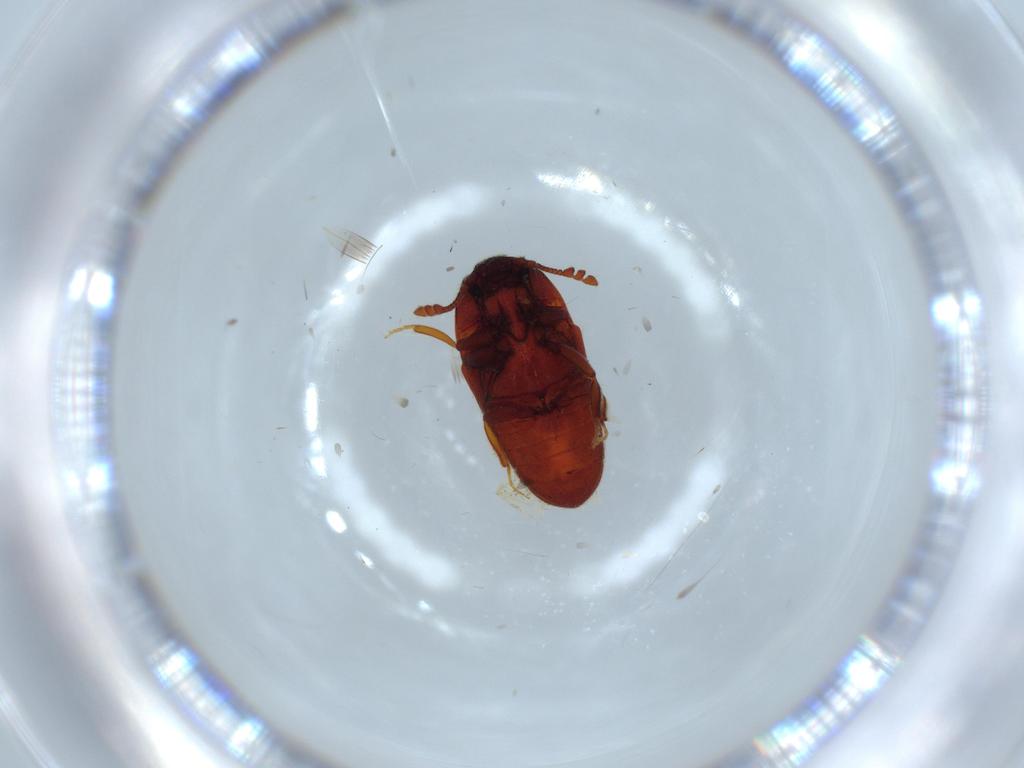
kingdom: Animalia
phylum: Arthropoda
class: Insecta
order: Coleoptera
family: Throscidae
